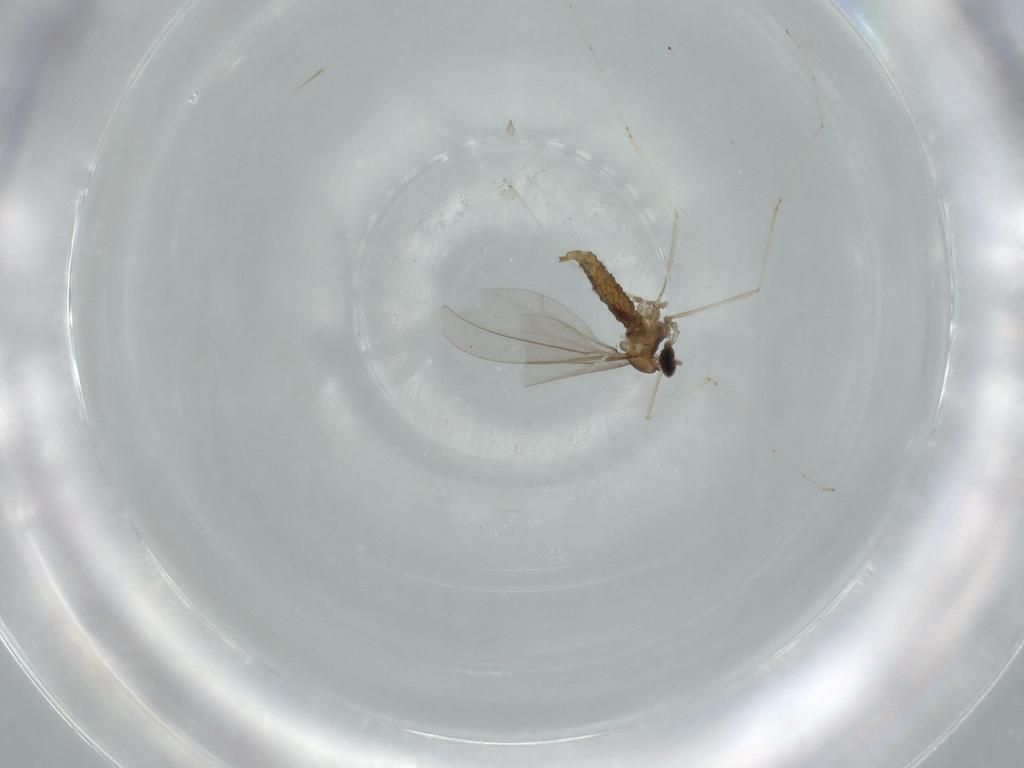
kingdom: Animalia
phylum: Arthropoda
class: Insecta
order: Diptera
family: Cecidomyiidae
